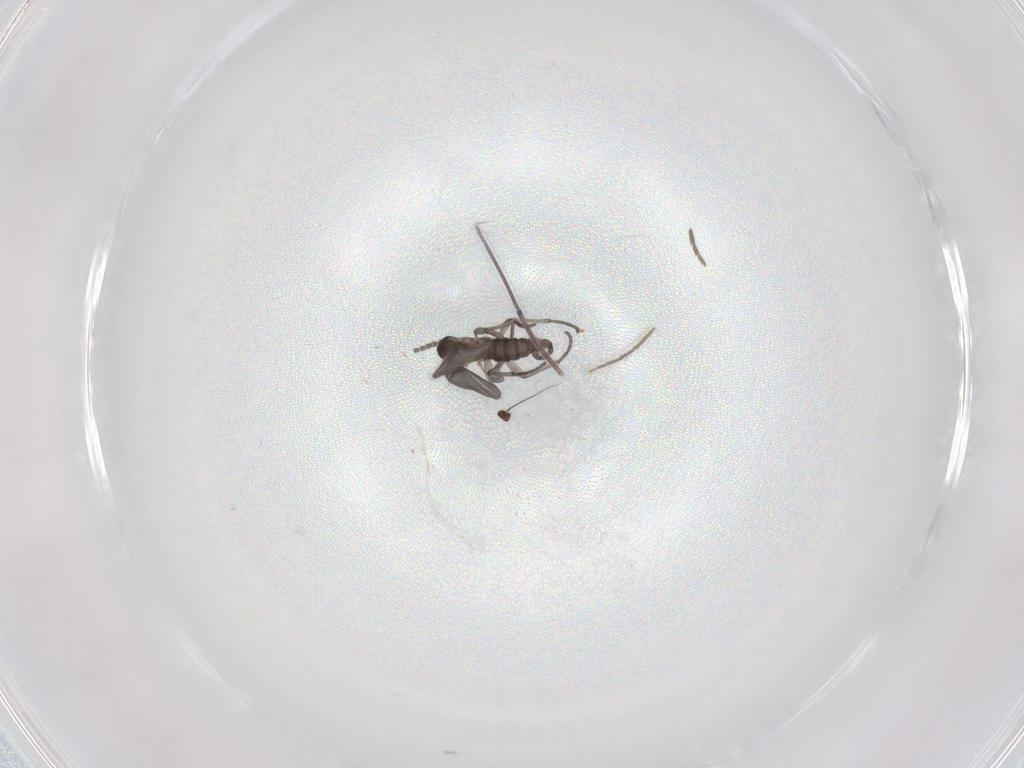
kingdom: Animalia
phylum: Arthropoda
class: Insecta
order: Diptera
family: Sciaridae
